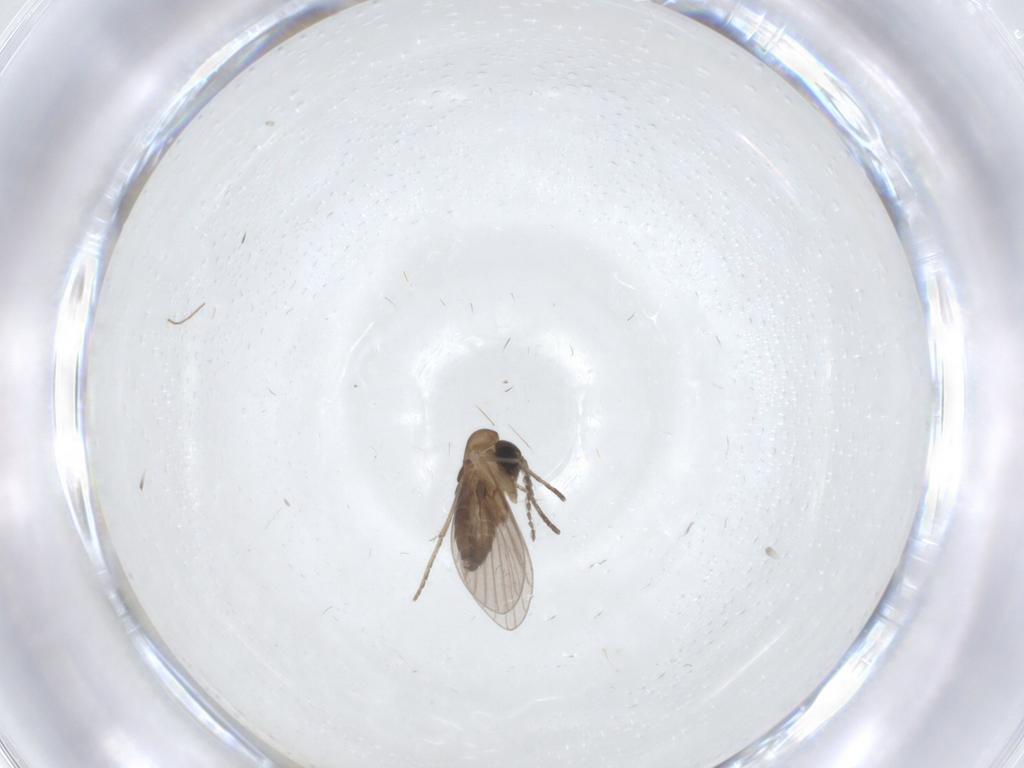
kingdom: Animalia
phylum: Arthropoda
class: Insecta
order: Diptera
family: Chironomidae
